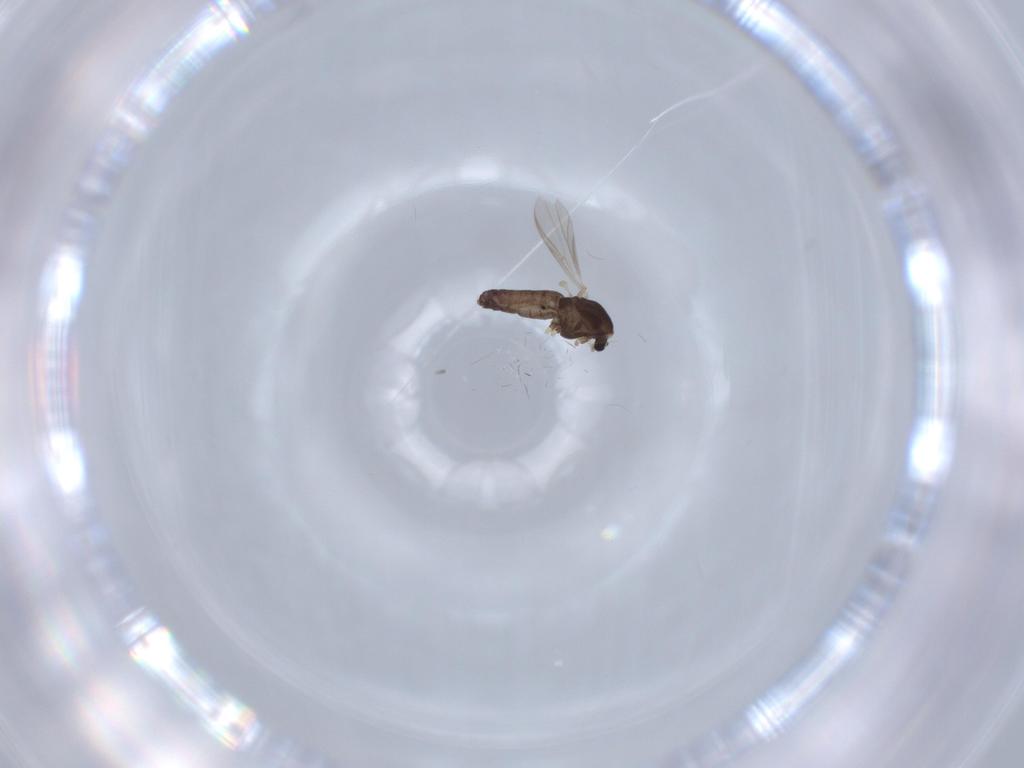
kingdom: Animalia
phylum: Arthropoda
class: Insecta
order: Diptera
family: Chironomidae
